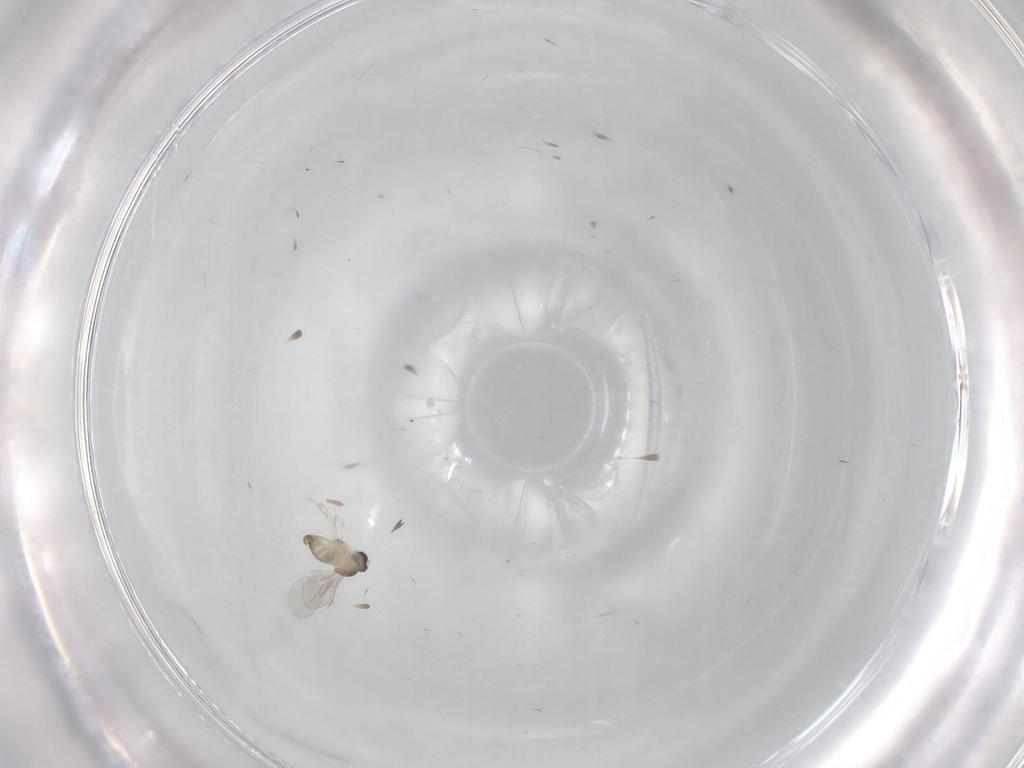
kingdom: Animalia
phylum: Arthropoda
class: Insecta
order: Diptera
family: Cecidomyiidae
